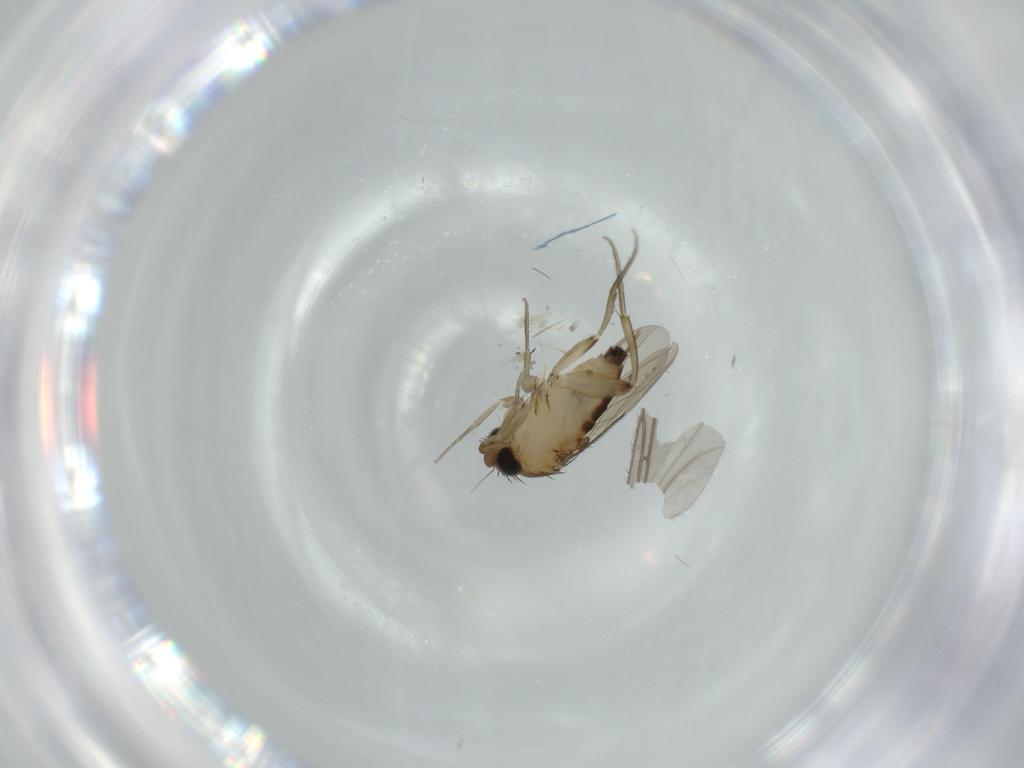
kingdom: Animalia
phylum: Arthropoda
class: Insecta
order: Diptera
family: Phoridae
